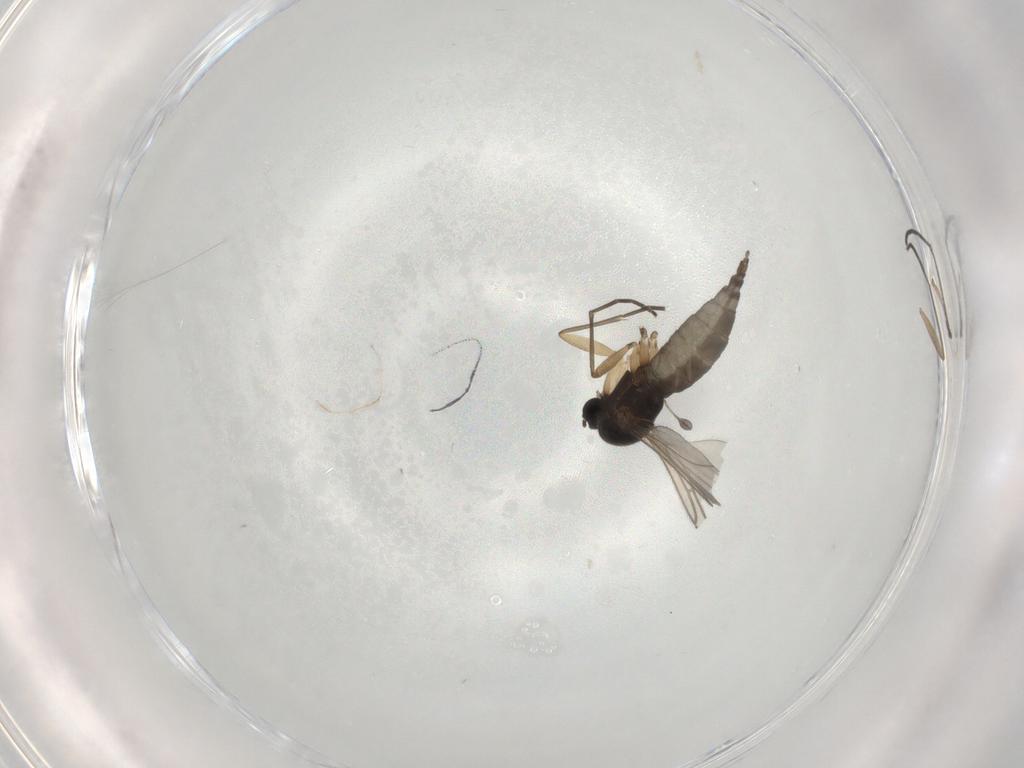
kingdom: Animalia
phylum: Arthropoda
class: Insecta
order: Diptera
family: Sciaridae
